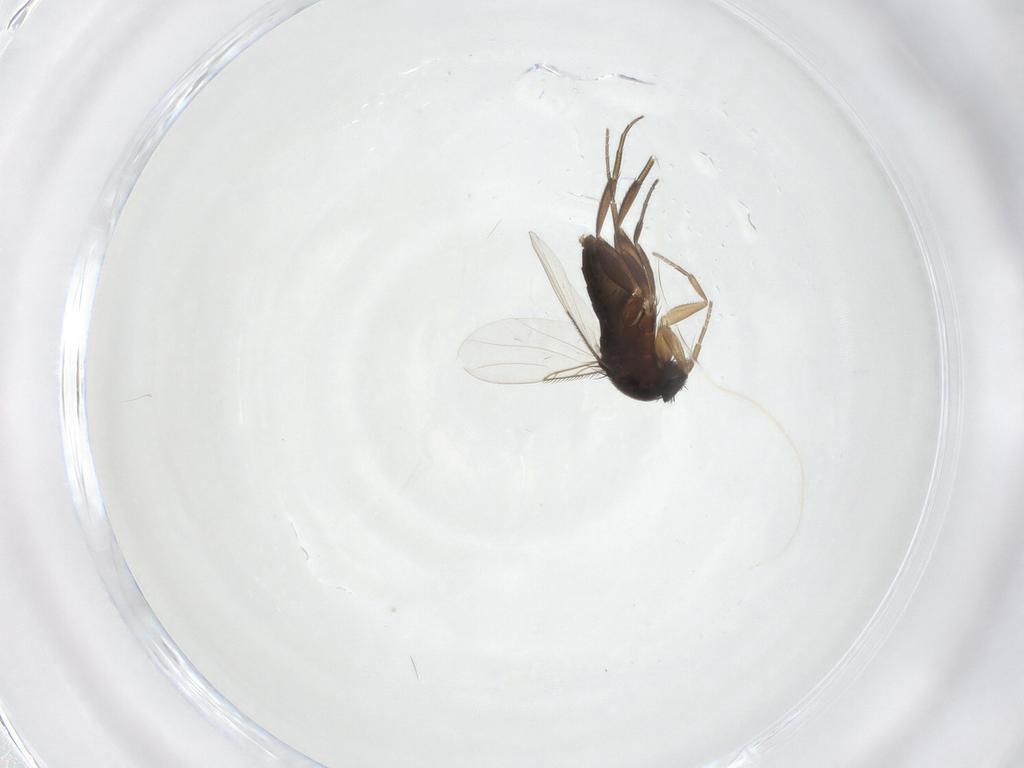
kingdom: Animalia
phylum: Arthropoda
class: Insecta
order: Diptera
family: Phoridae
